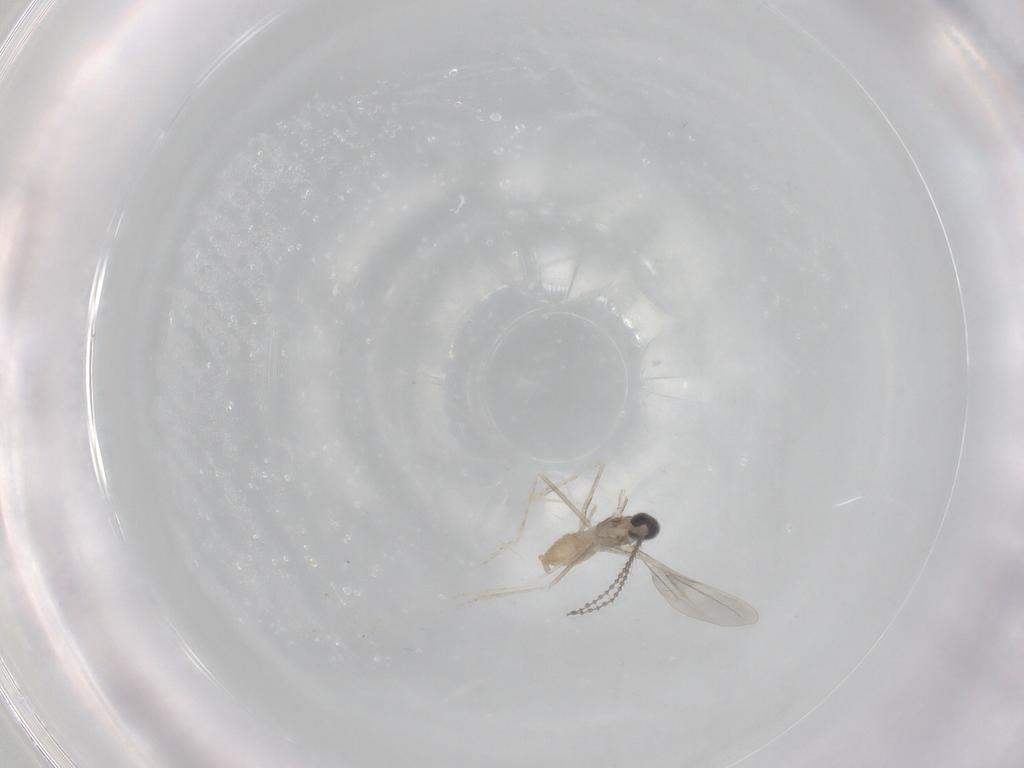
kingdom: Animalia
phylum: Arthropoda
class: Insecta
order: Diptera
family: Cecidomyiidae
